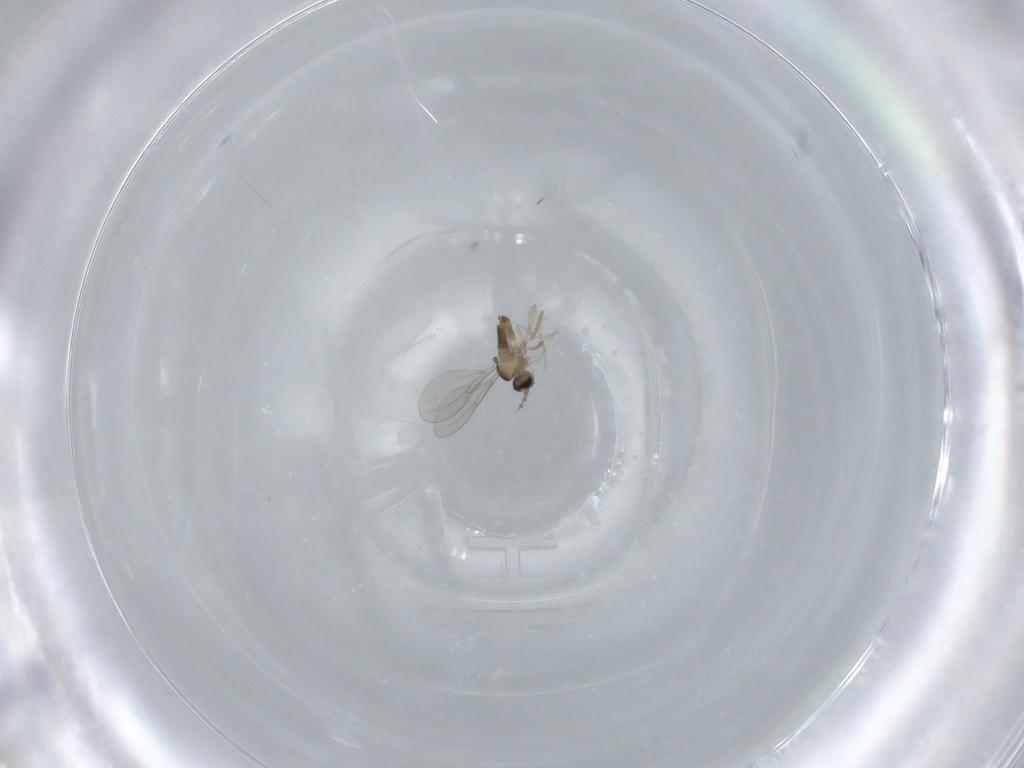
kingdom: Animalia
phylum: Arthropoda
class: Insecta
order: Diptera
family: Cecidomyiidae
